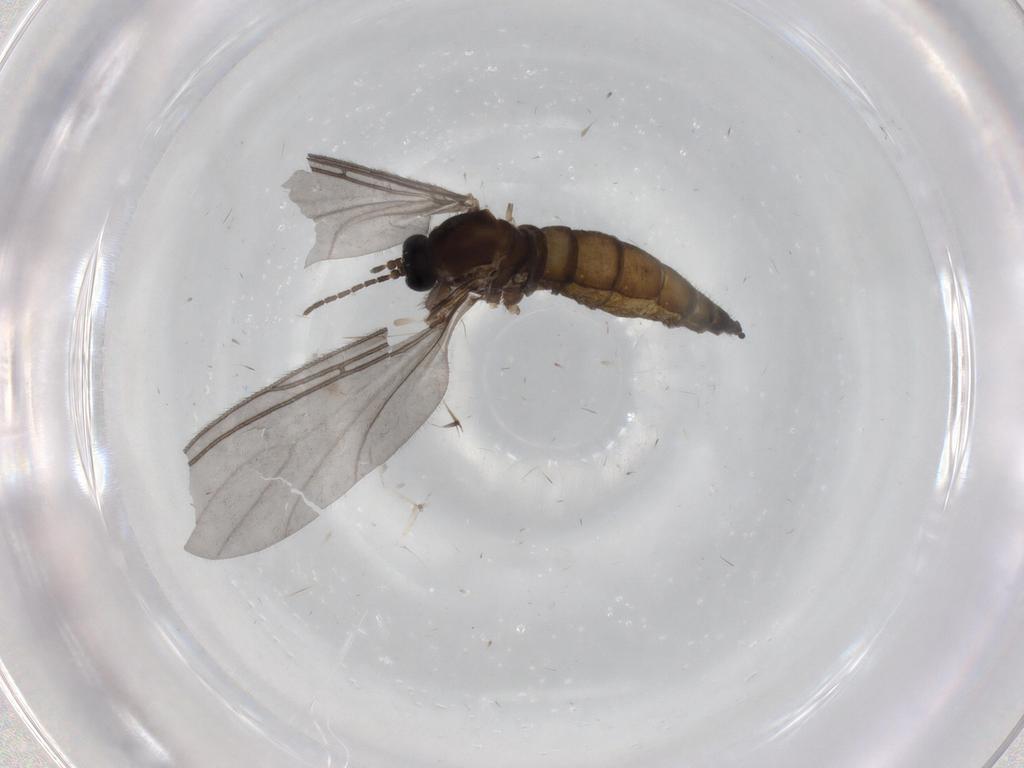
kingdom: Animalia
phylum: Arthropoda
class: Insecta
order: Diptera
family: Sciaridae
